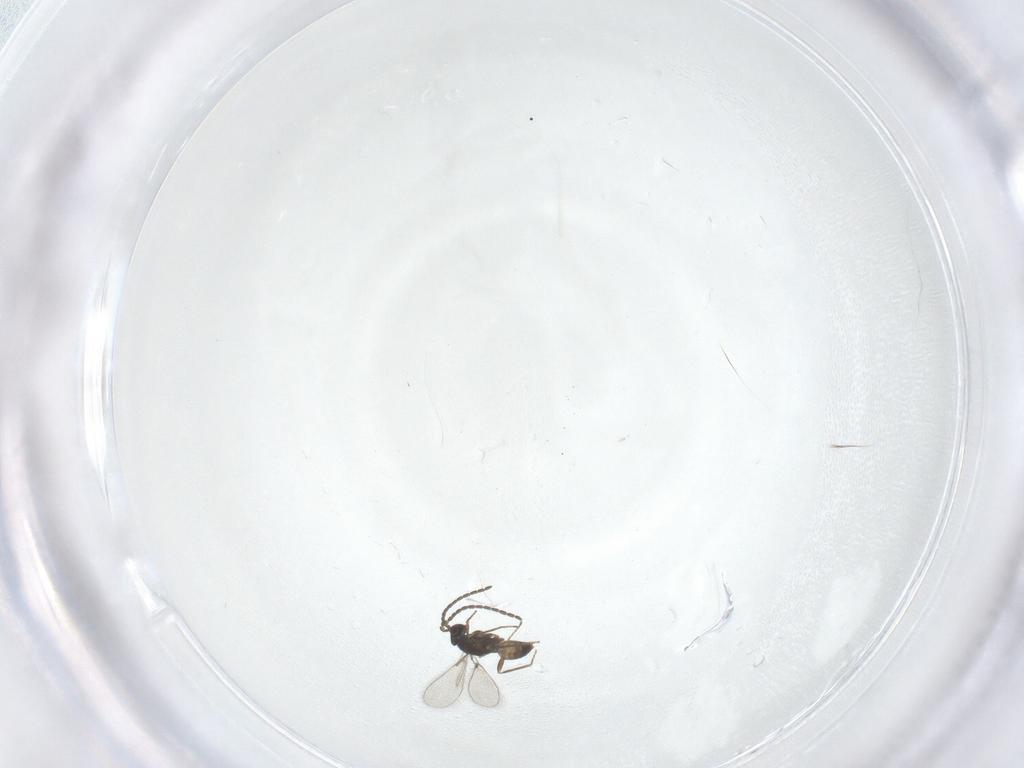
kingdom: Animalia
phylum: Arthropoda
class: Insecta
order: Hymenoptera
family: Mymaridae
